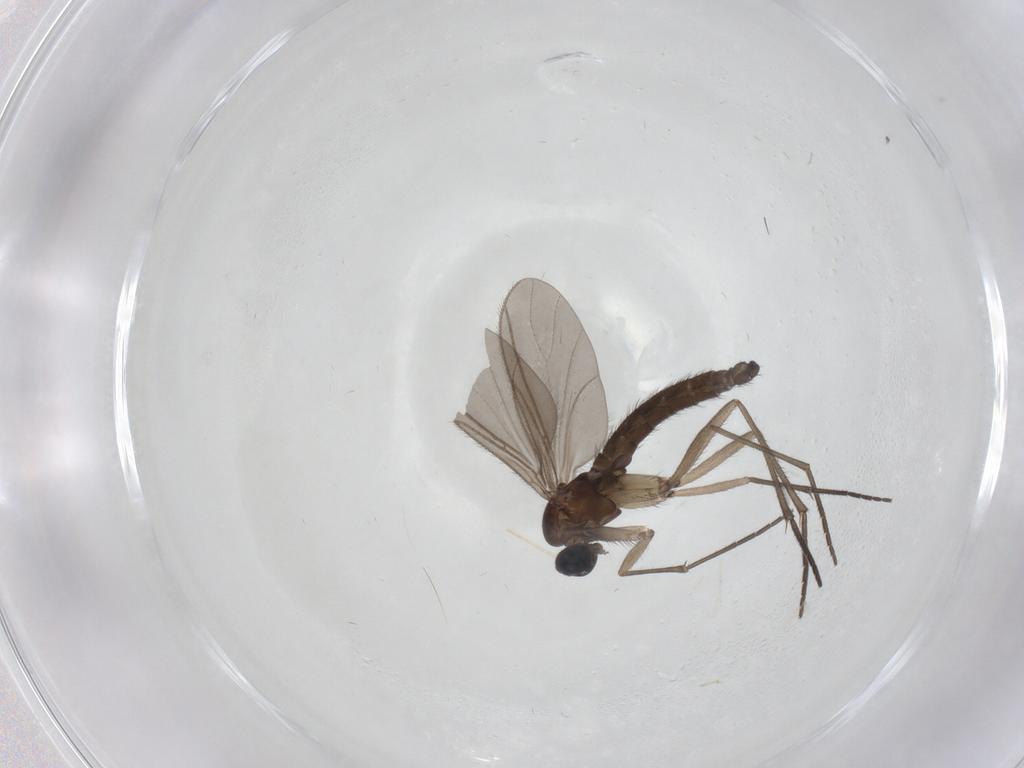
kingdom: Animalia
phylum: Arthropoda
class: Insecta
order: Diptera
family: Sciaridae
